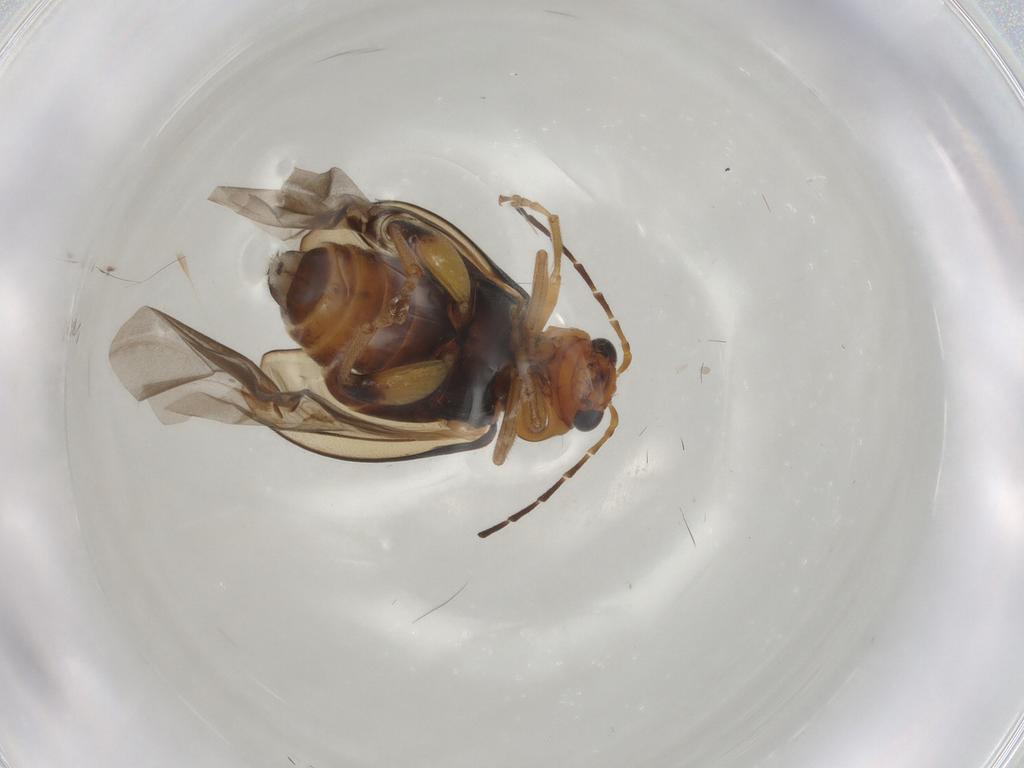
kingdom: Animalia
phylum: Arthropoda
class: Insecta
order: Coleoptera
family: Chrysomelidae
